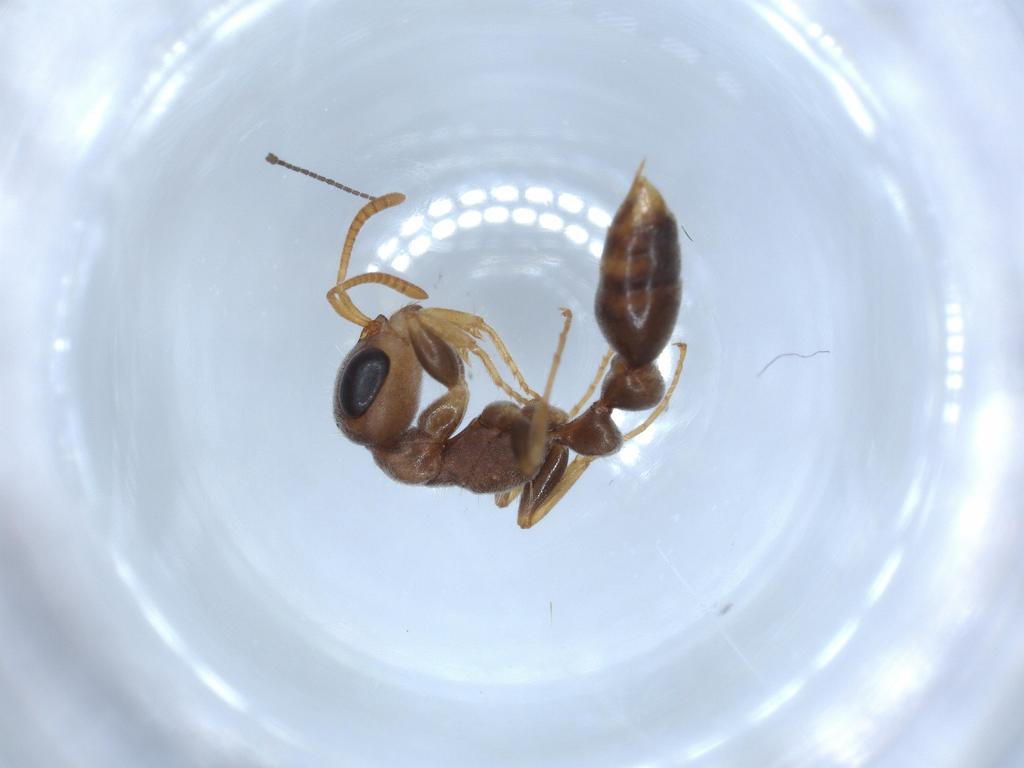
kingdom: Animalia
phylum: Arthropoda
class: Insecta
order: Hymenoptera
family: Formicidae
